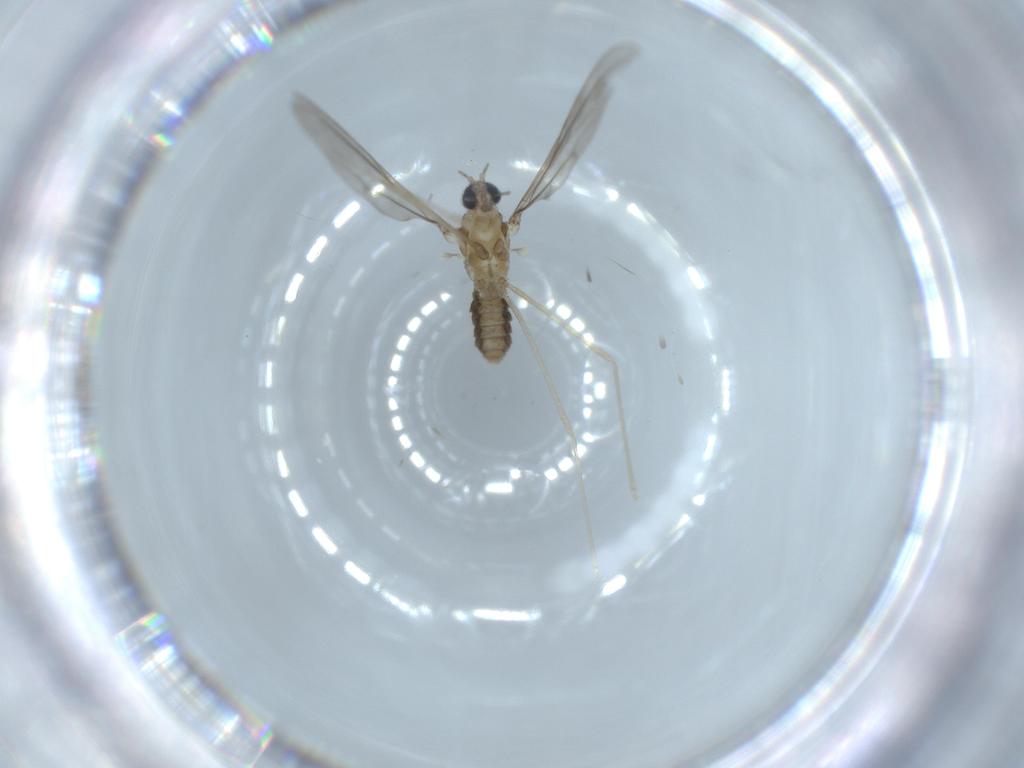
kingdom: Animalia
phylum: Arthropoda
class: Insecta
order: Diptera
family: Cecidomyiidae
